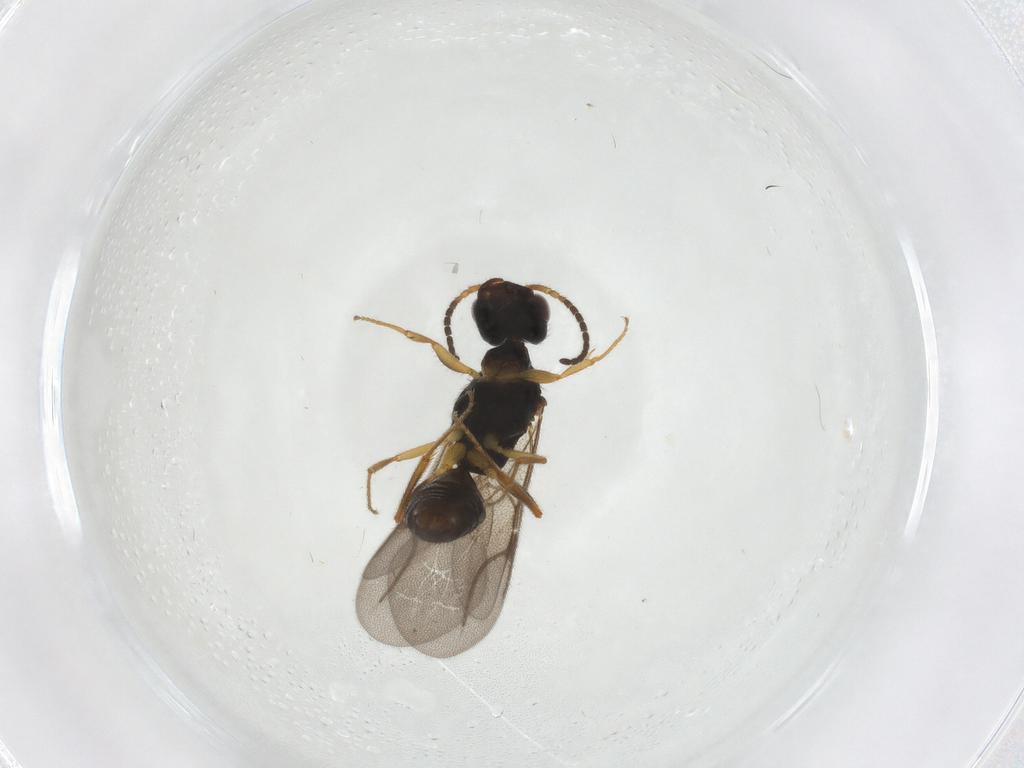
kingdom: Animalia
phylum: Arthropoda
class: Insecta
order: Hymenoptera
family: Bethylidae
